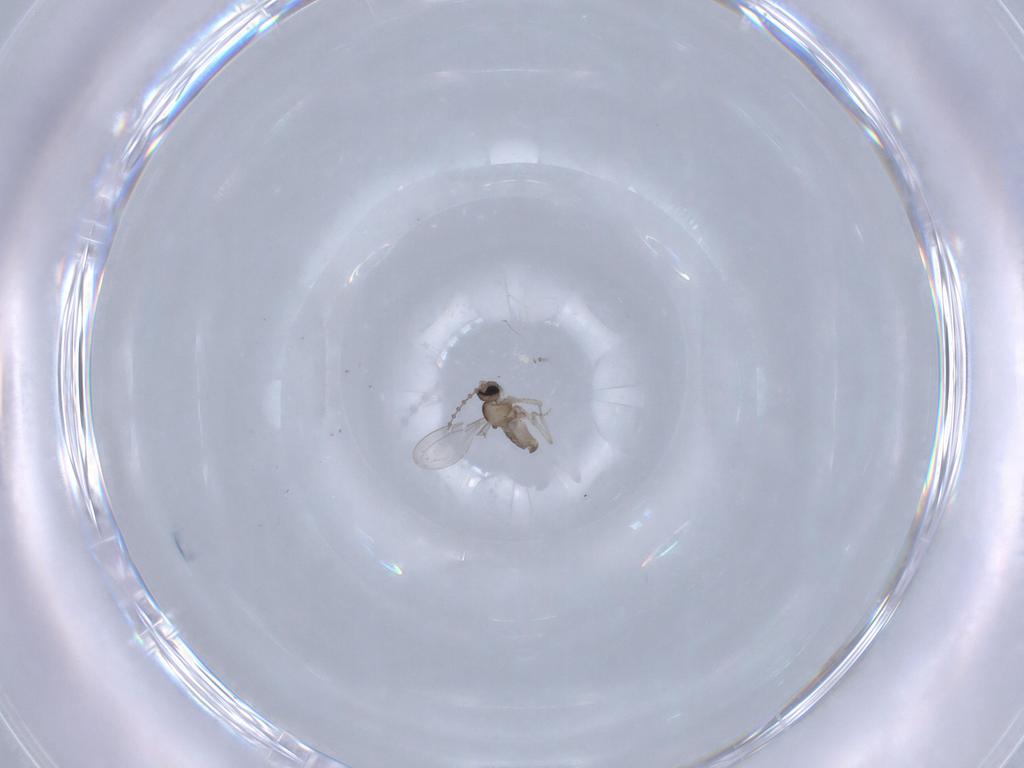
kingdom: Animalia
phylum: Arthropoda
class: Insecta
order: Diptera
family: Cecidomyiidae
